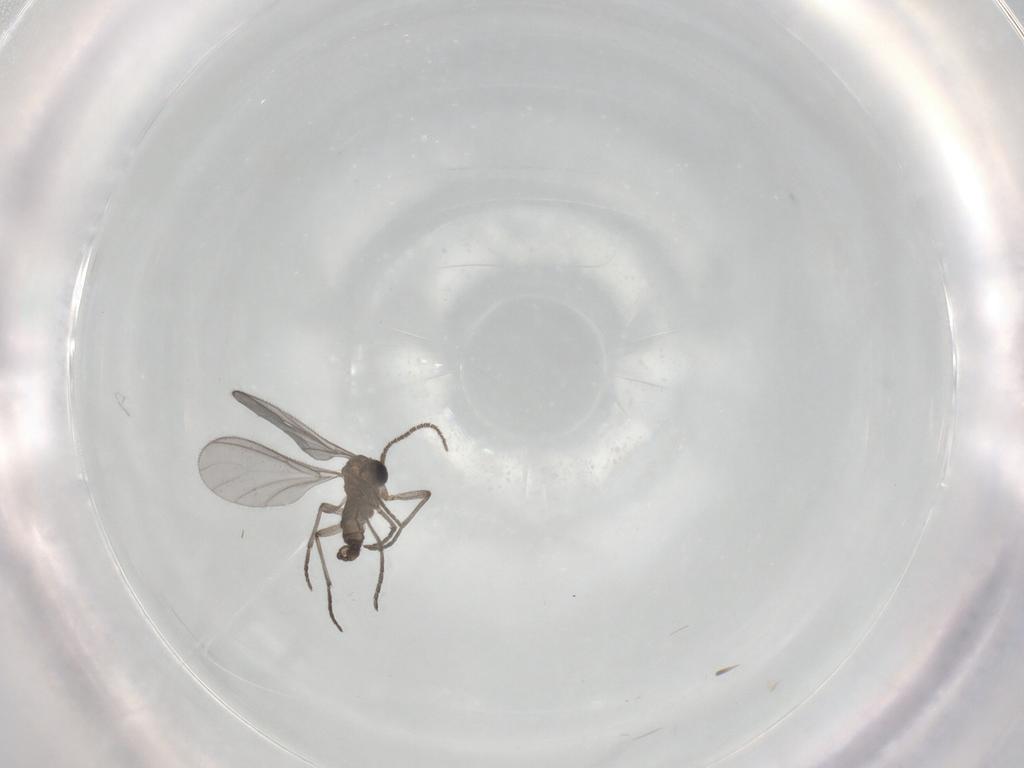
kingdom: Animalia
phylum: Arthropoda
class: Insecta
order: Diptera
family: Sciaridae
